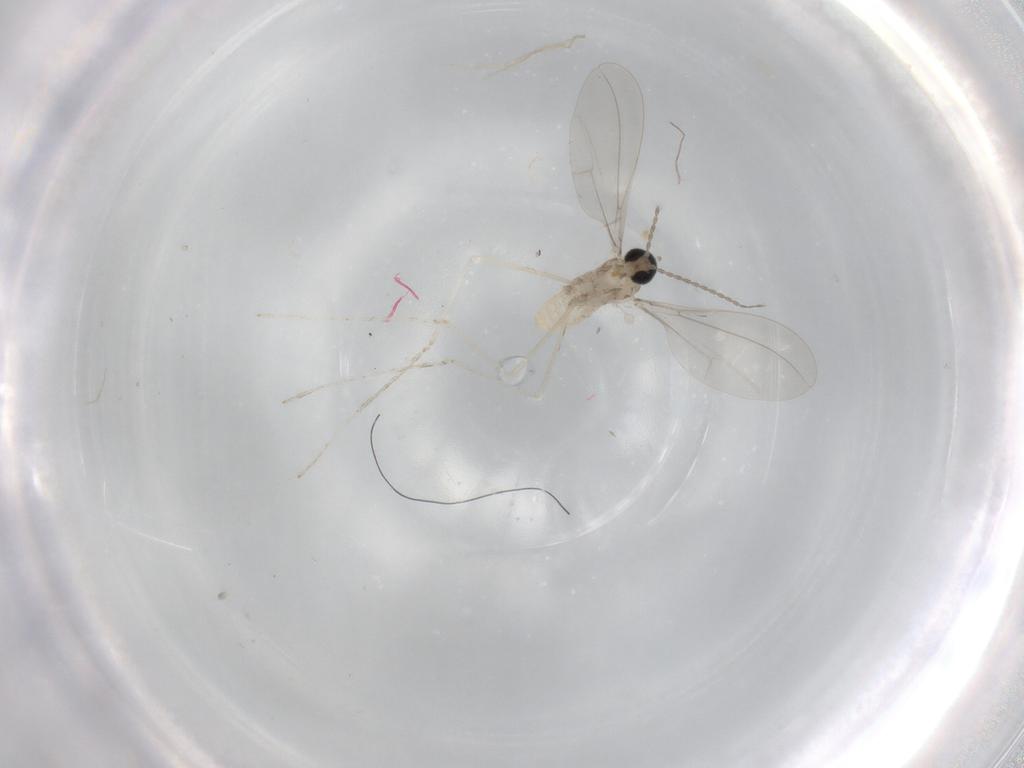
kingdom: Animalia
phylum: Arthropoda
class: Insecta
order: Diptera
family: Cecidomyiidae
